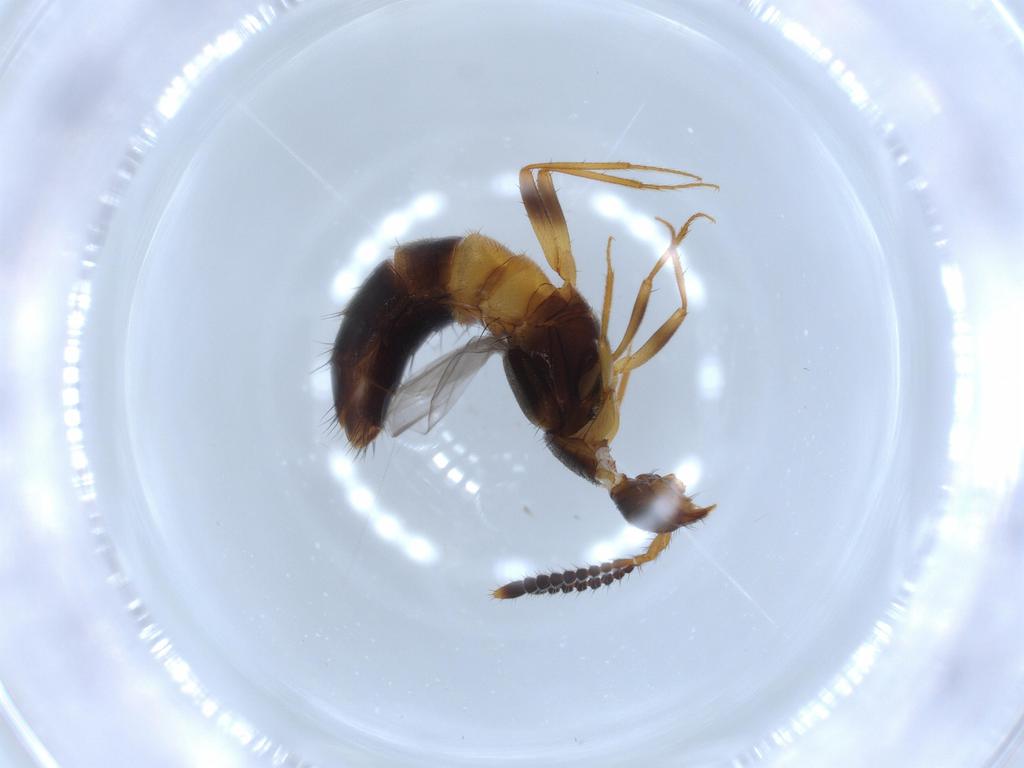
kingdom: Animalia
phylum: Arthropoda
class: Insecta
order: Coleoptera
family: Staphylinidae
